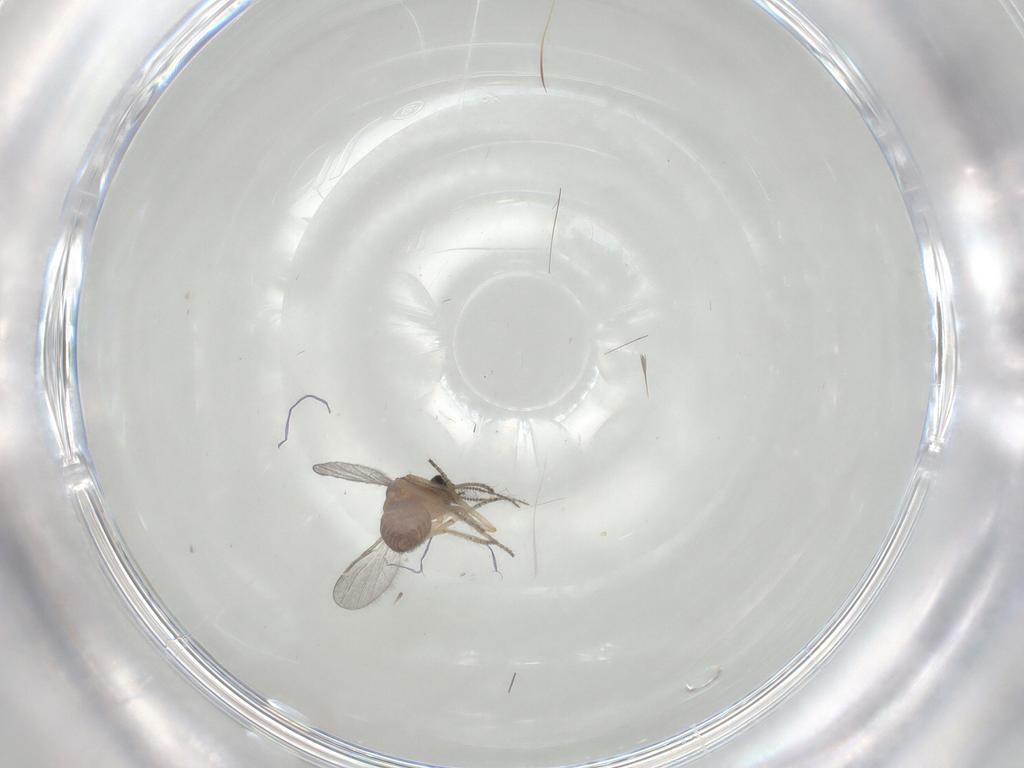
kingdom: Animalia
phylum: Arthropoda
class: Insecta
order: Diptera
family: Ceratopogonidae
